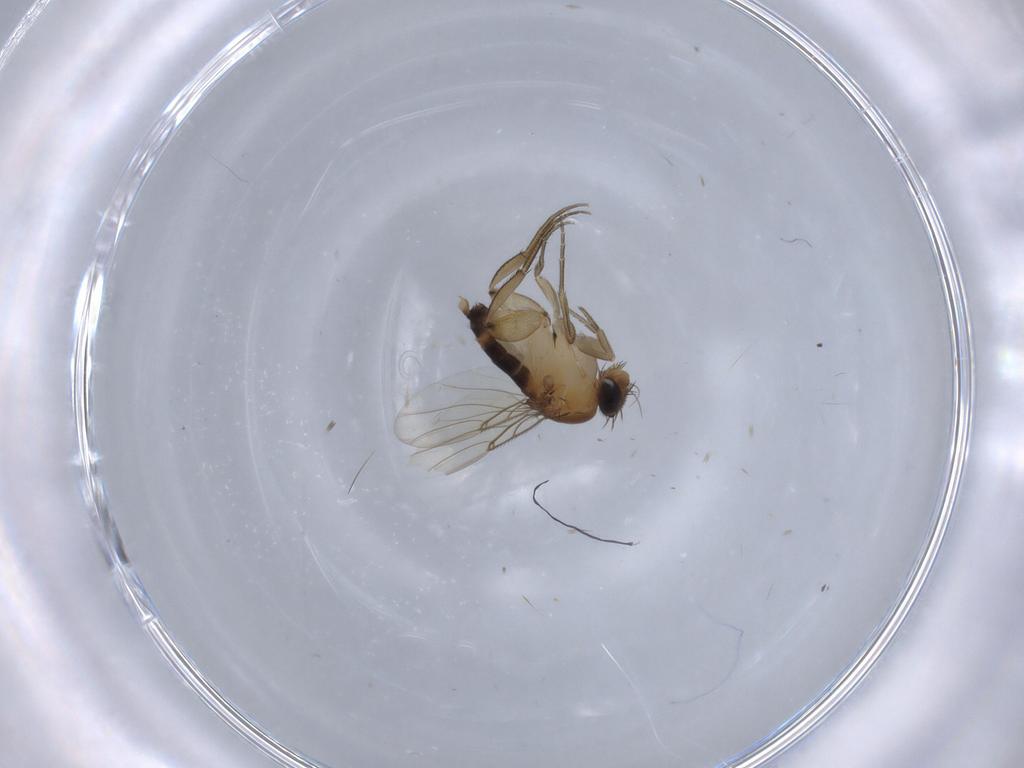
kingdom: Animalia
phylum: Arthropoda
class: Insecta
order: Diptera
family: Phoridae
